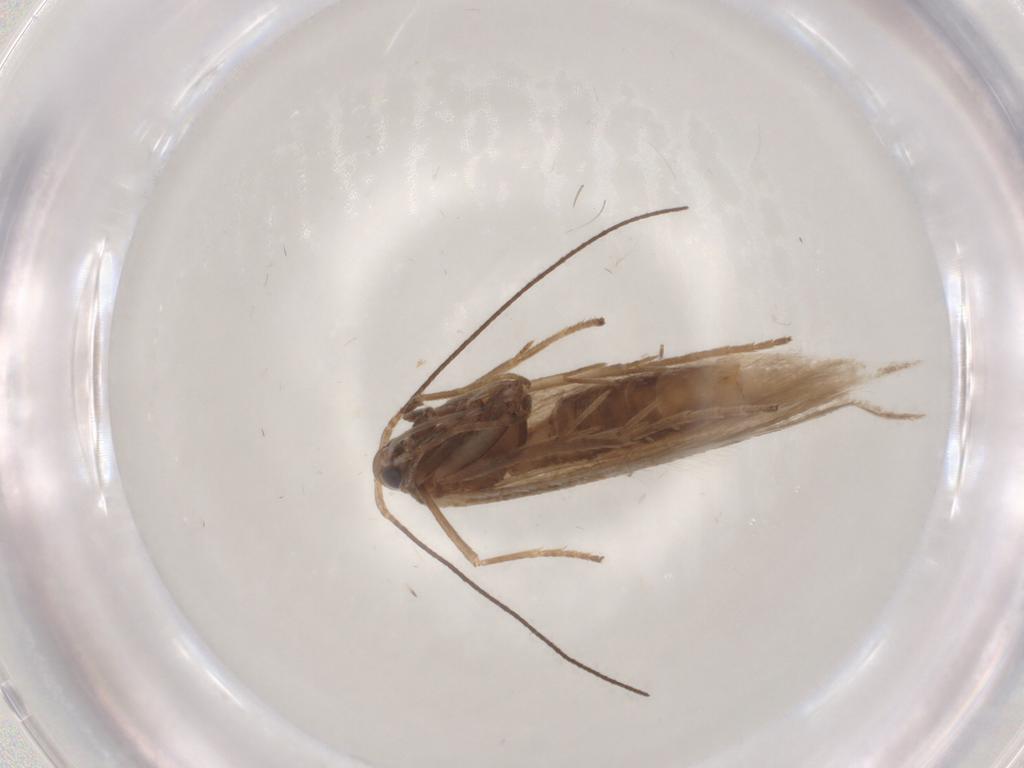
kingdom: Animalia
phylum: Arthropoda
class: Insecta
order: Lepidoptera
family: Coleophoridae
